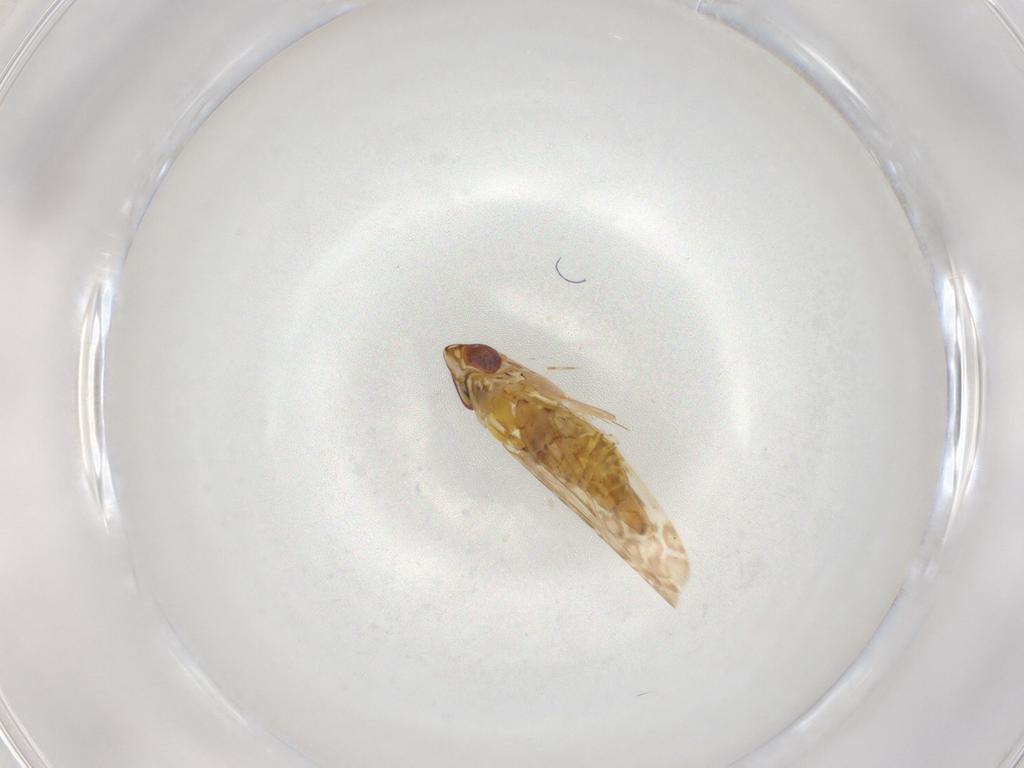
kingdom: Animalia
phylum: Arthropoda
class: Insecta
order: Hemiptera
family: Cicadellidae
